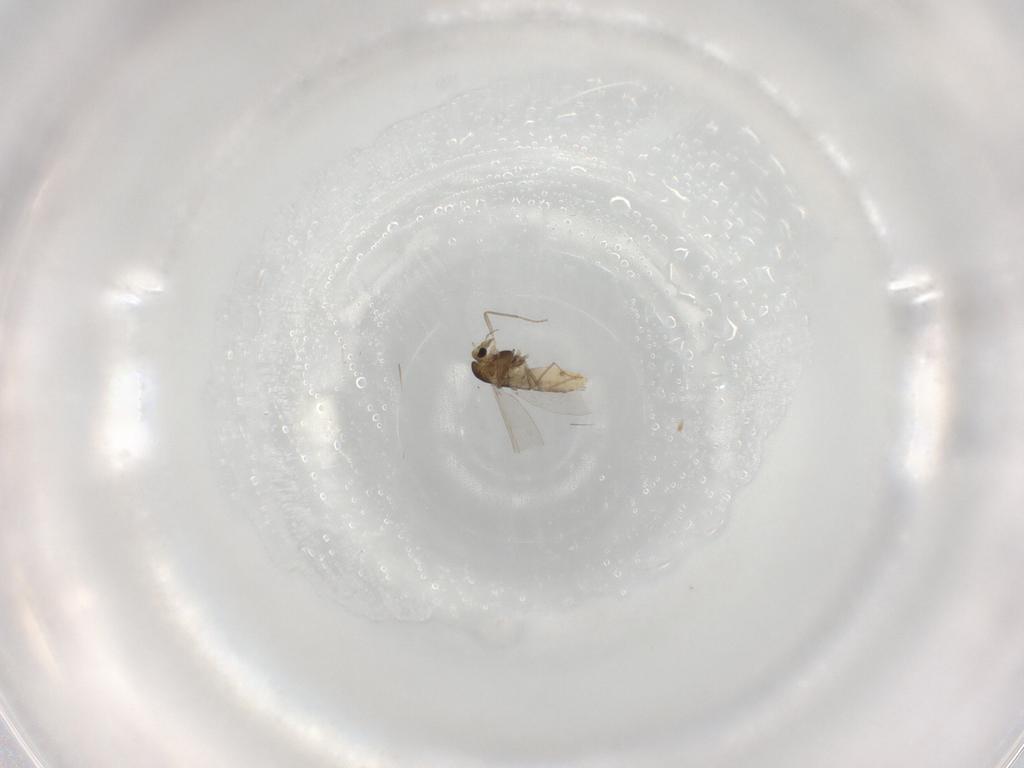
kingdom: Animalia
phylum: Arthropoda
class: Insecta
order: Diptera
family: Chironomidae
